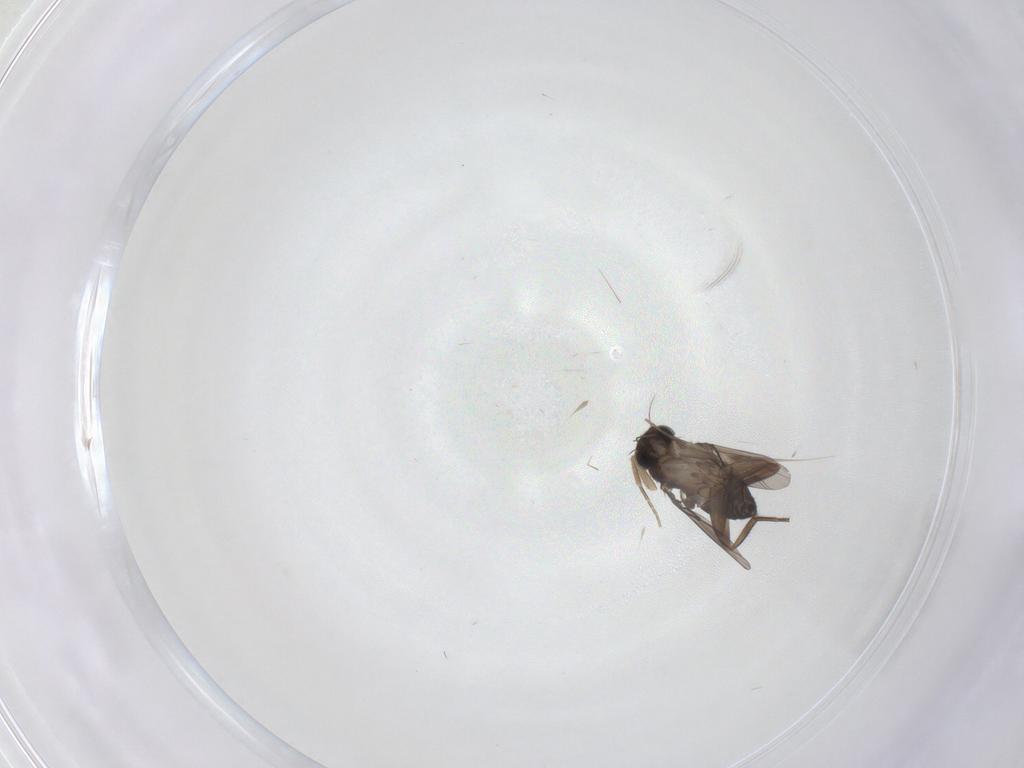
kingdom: Animalia
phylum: Arthropoda
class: Insecta
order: Diptera
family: Phoridae
